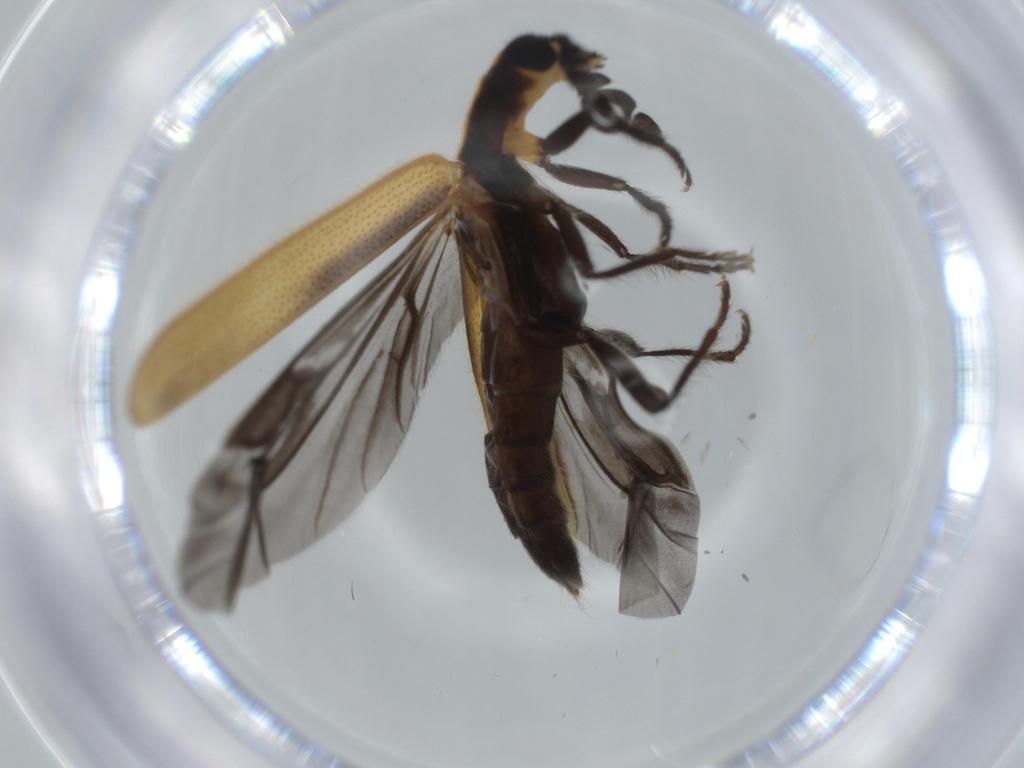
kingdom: Animalia
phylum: Arthropoda
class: Insecta
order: Coleoptera
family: Cleridae
